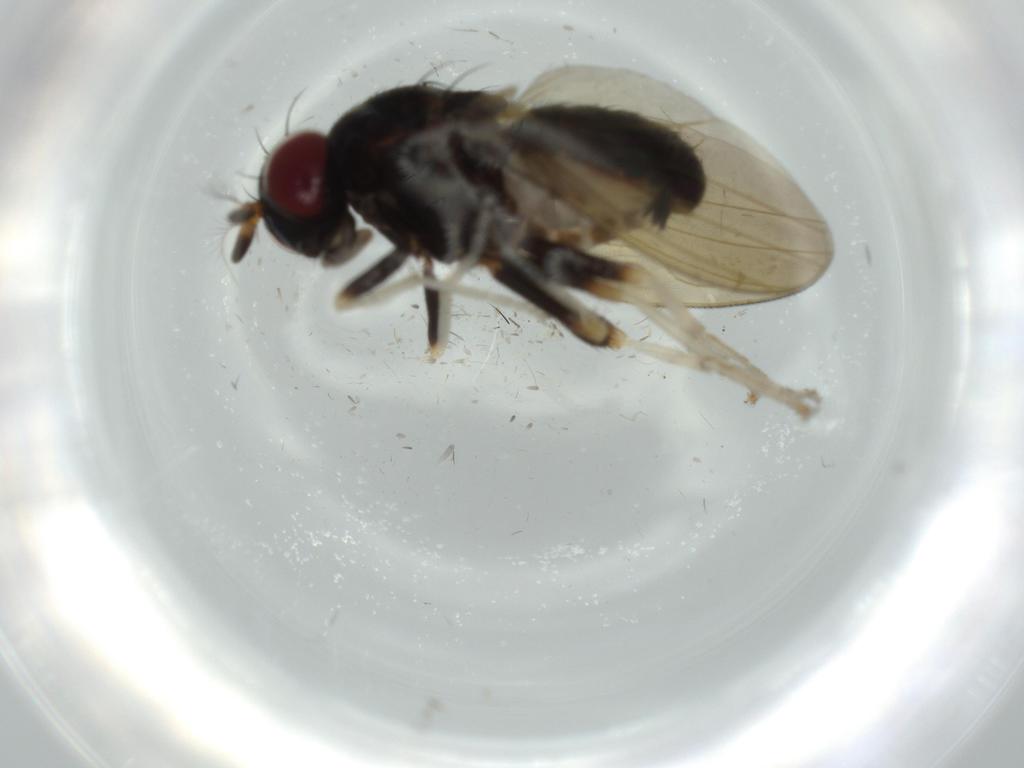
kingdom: Animalia
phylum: Arthropoda
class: Insecta
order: Diptera
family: Lauxaniidae
